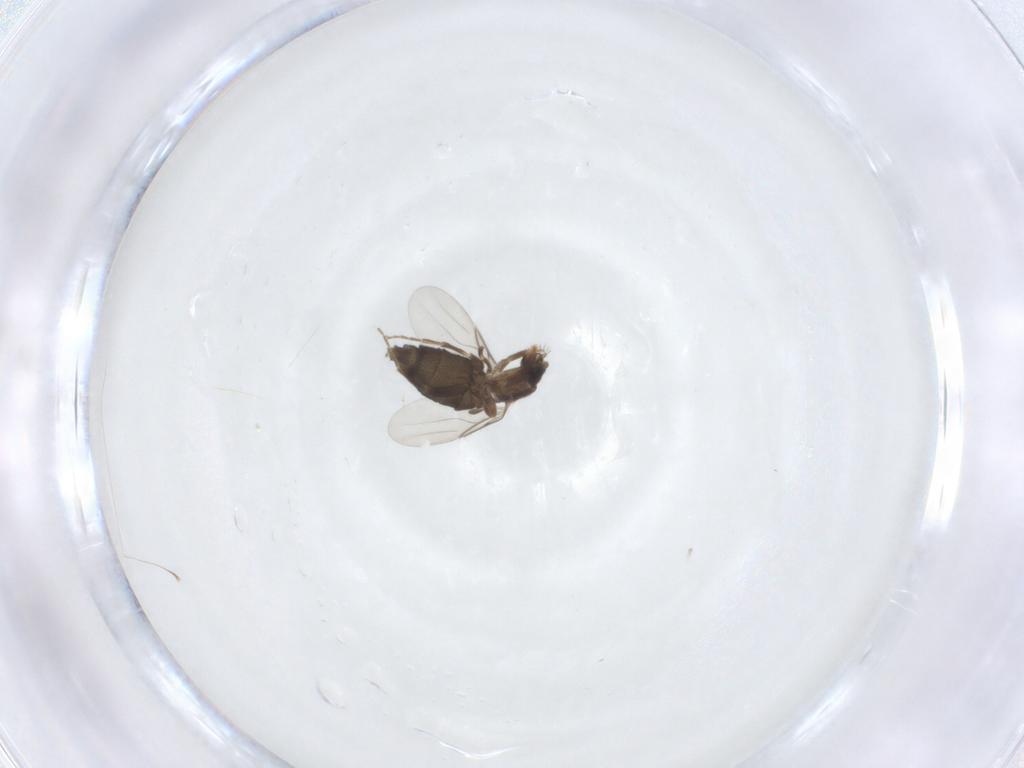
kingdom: Animalia
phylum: Arthropoda
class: Insecta
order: Diptera
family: Phoridae
